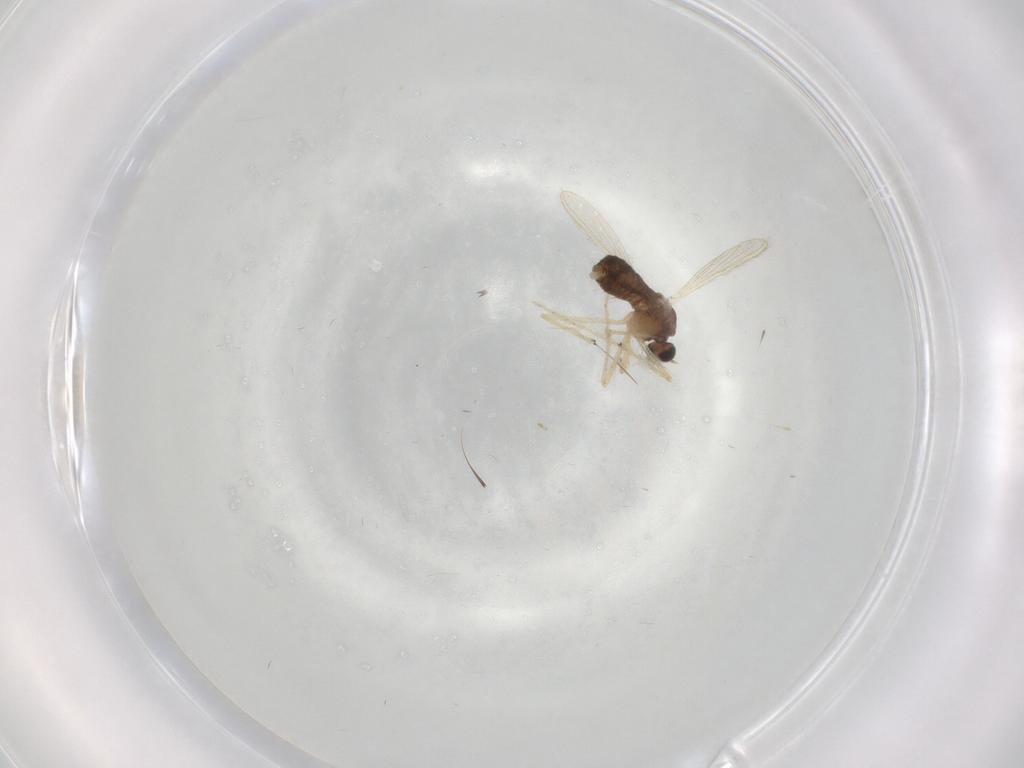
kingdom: Animalia
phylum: Arthropoda
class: Insecta
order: Diptera
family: Chironomidae
